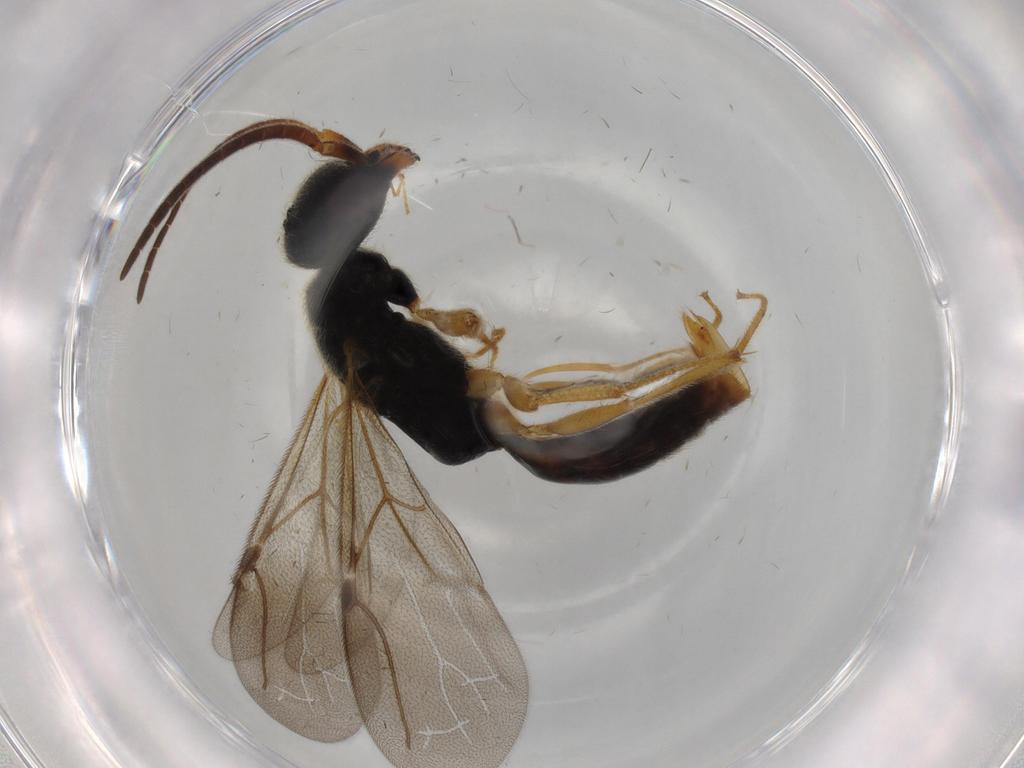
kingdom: Animalia
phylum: Arthropoda
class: Insecta
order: Hymenoptera
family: Bethylidae
